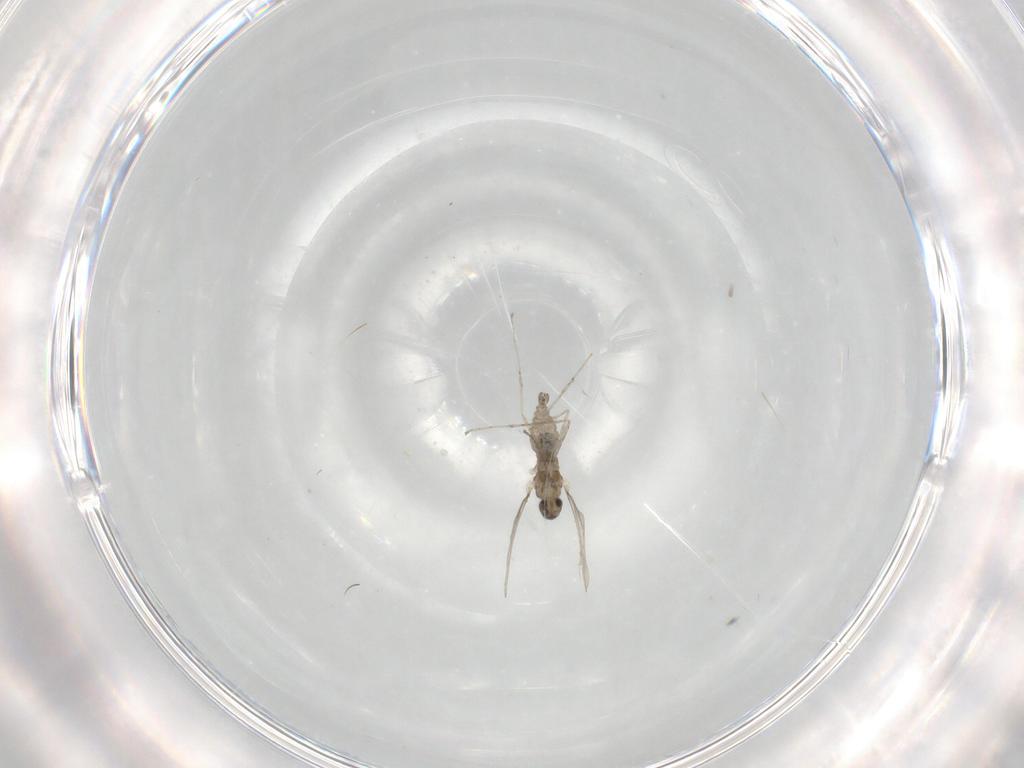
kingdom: Animalia
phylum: Arthropoda
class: Insecta
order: Diptera
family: Cecidomyiidae
